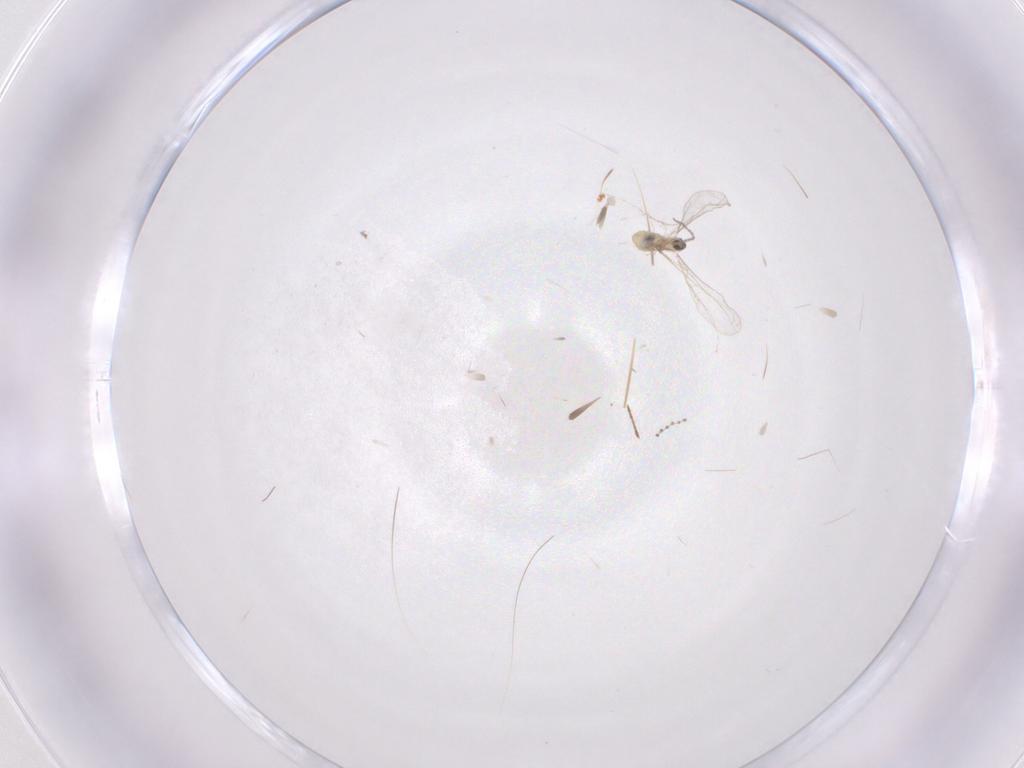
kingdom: Animalia
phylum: Arthropoda
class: Insecta
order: Diptera
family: Cecidomyiidae
